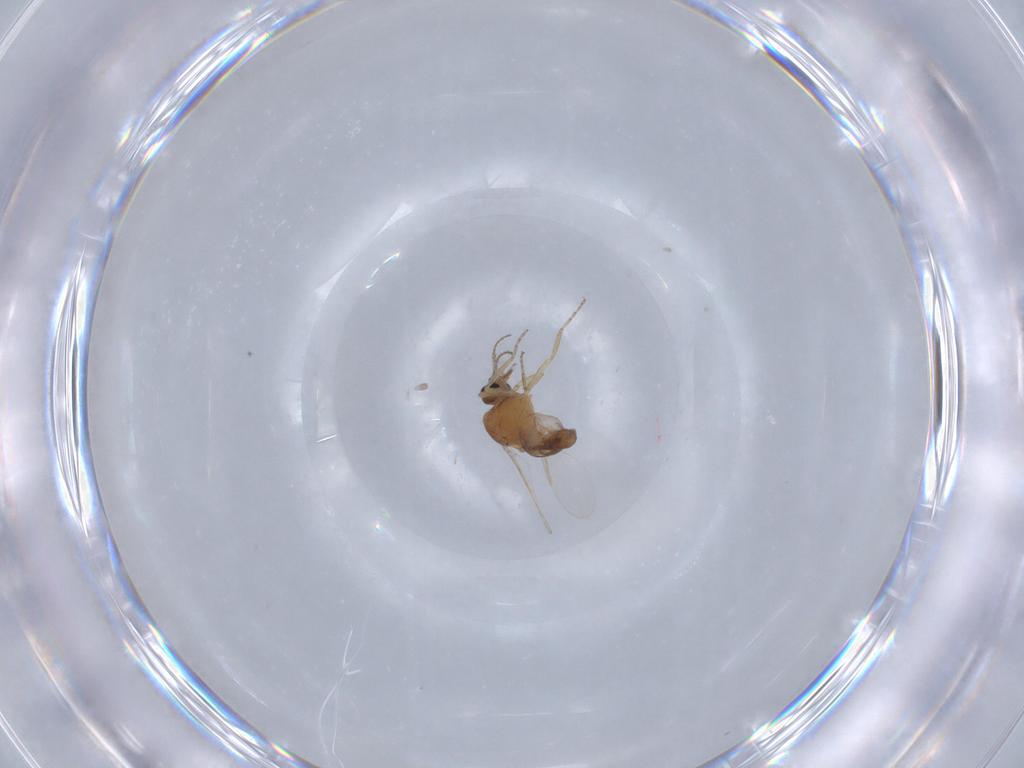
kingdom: Animalia
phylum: Arthropoda
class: Insecta
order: Diptera
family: Ceratopogonidae
